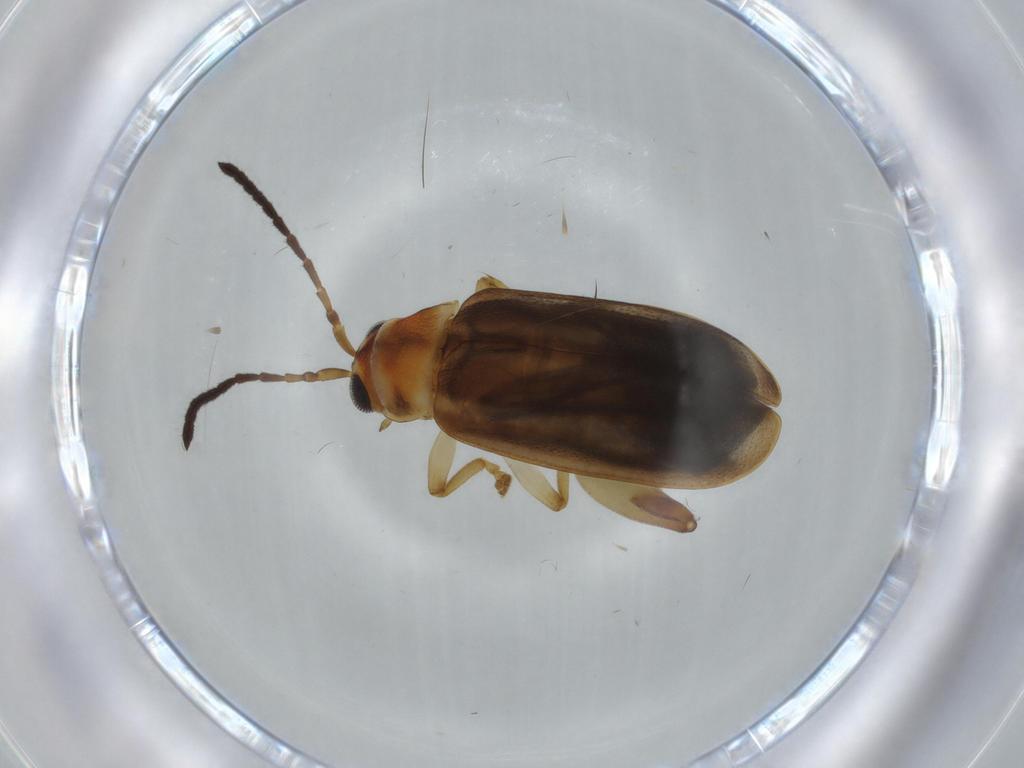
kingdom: Animalia
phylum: Arthropoda
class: Insecta
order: Coleoptera
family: Chrysomelidae
